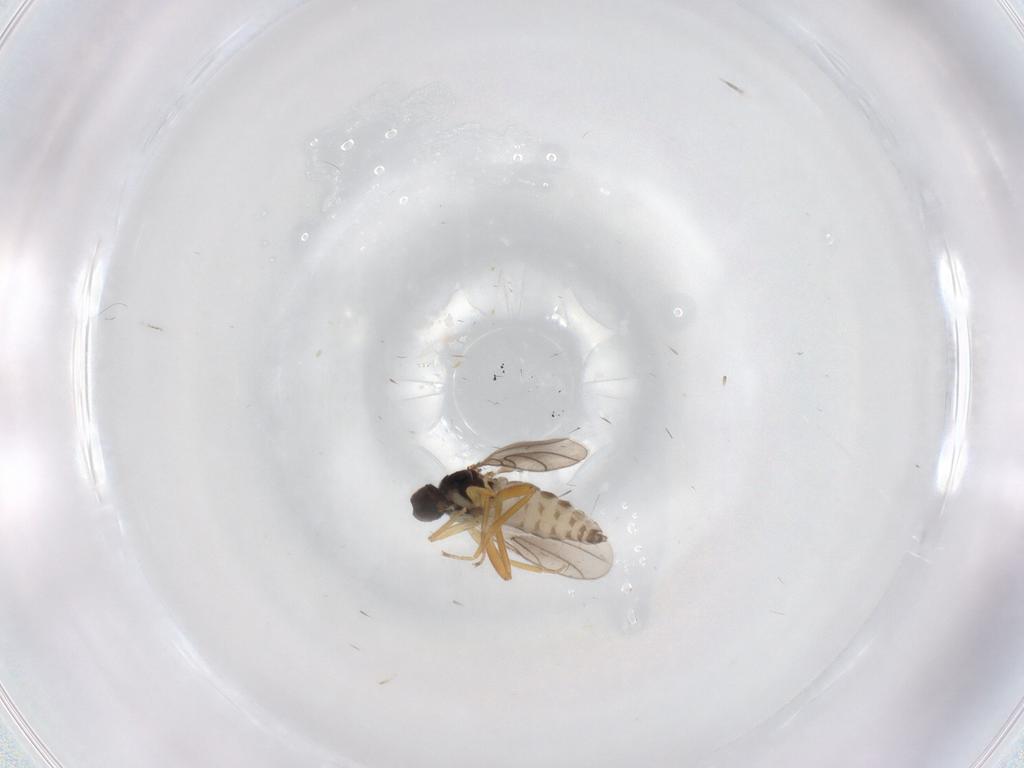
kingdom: Animalia
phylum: Arthropoda
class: Insecta
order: Diptera
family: Hybotidae
